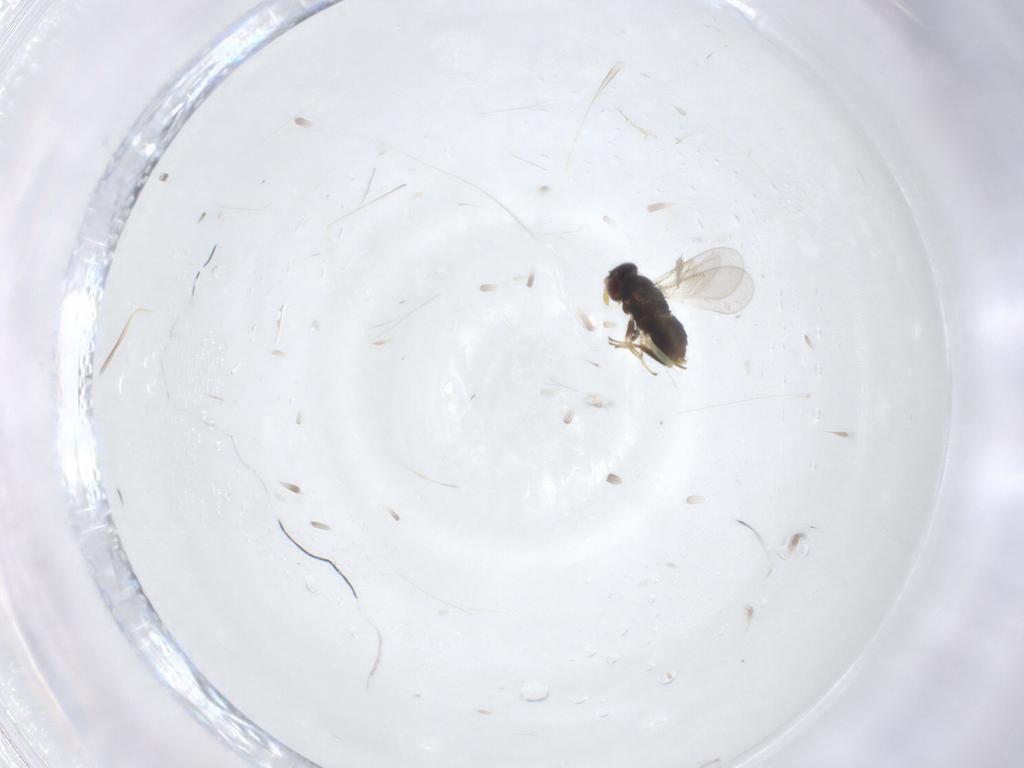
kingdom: Animalia
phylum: Arthropoda
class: Insecta
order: Hymenoptera
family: Aphelinidae
